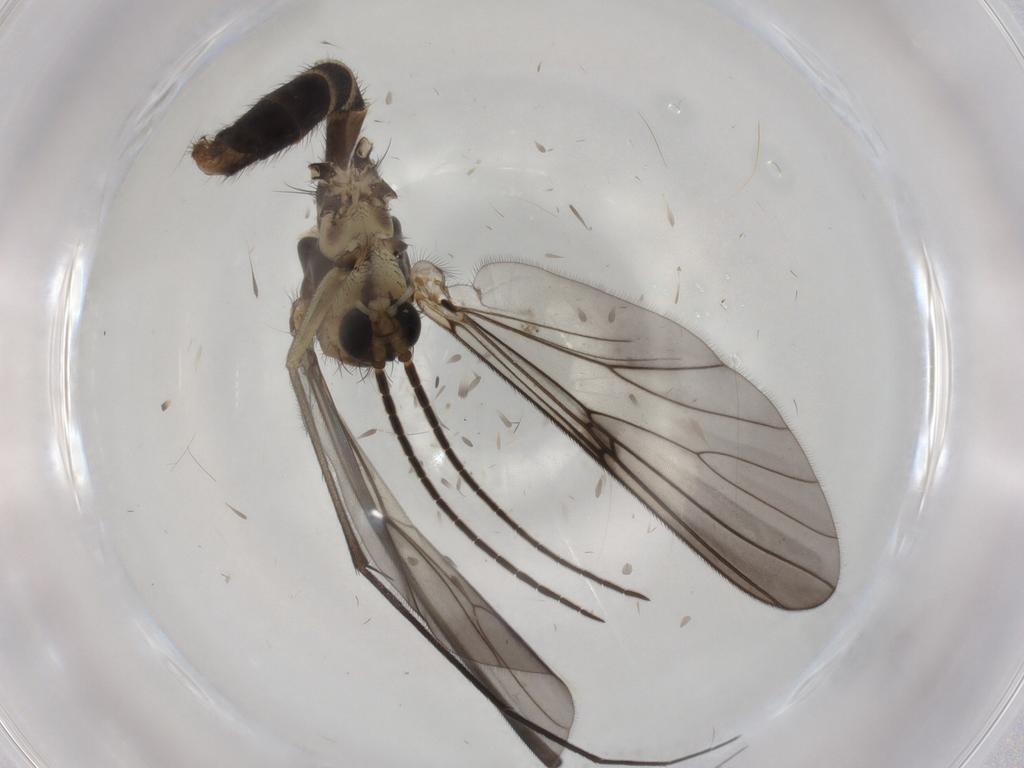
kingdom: Animalia
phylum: Arthropoda
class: Insecta
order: Diptera
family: Mycetophilidae
